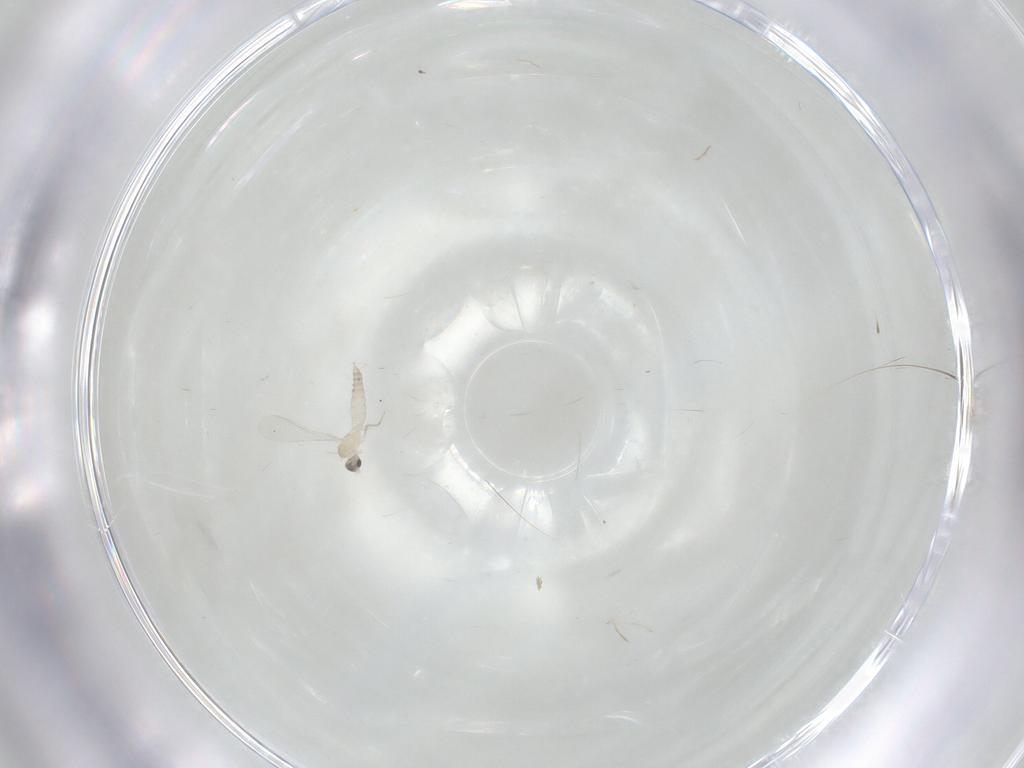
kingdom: Animalia
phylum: Arthropoda
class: Insecta
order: Diptera
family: Cecidomyiidae
